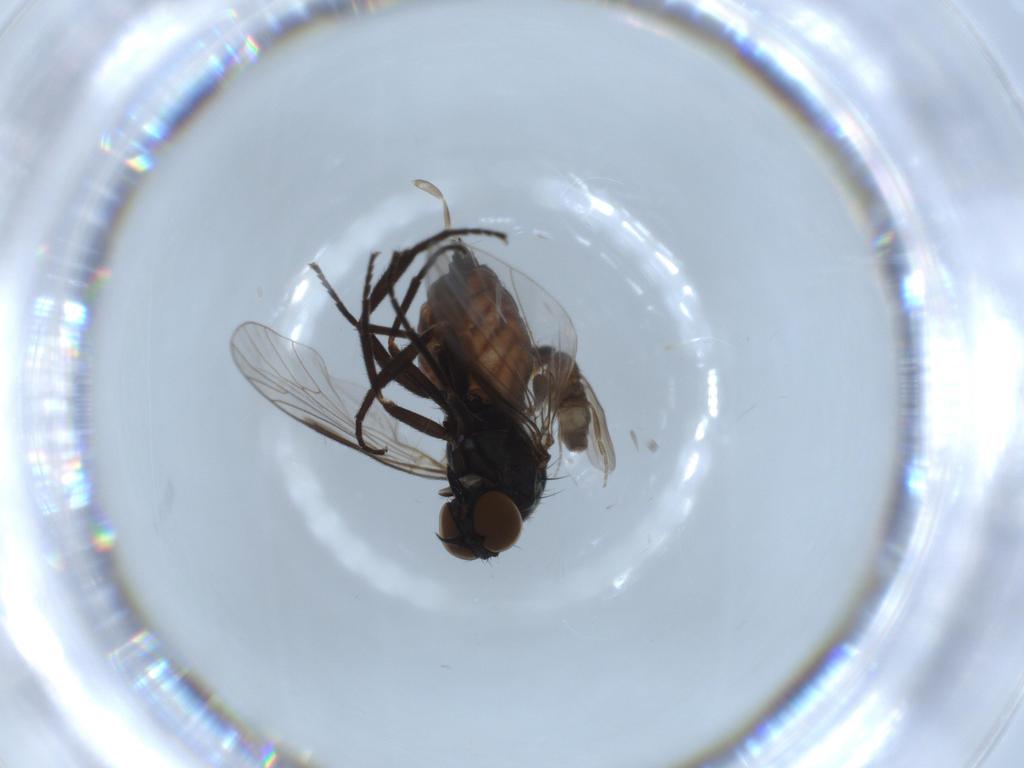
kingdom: Animalia
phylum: Arthropoda
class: Insecta
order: Diptera
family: Empididae
